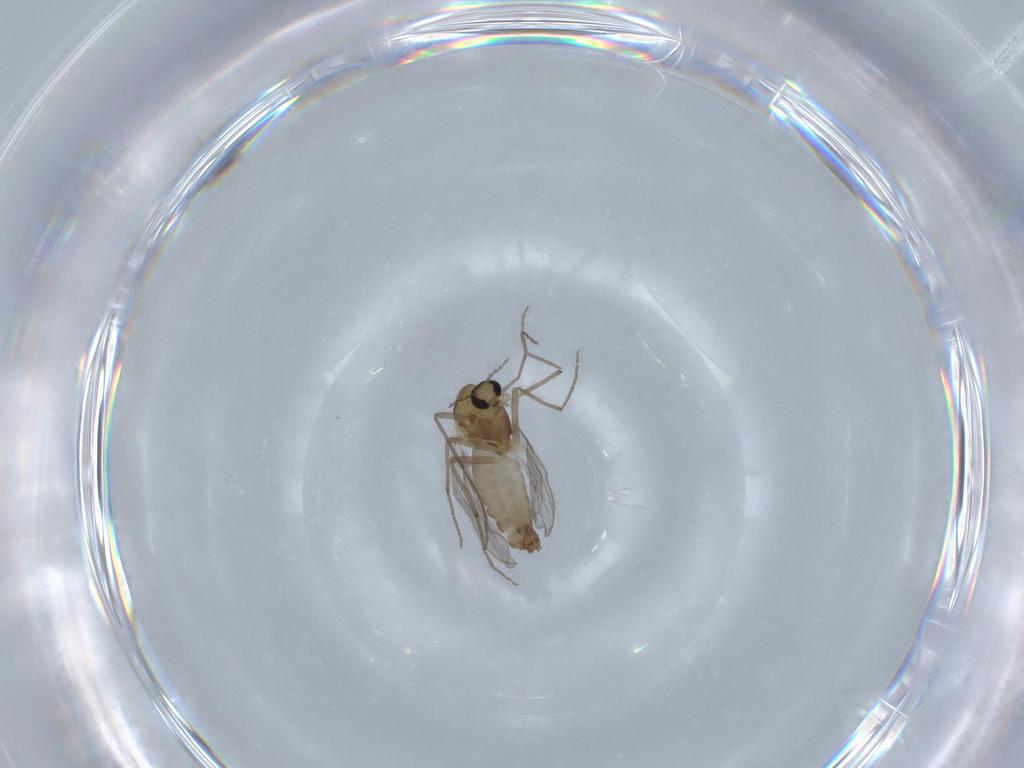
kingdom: Animalia
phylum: Arthropoda
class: Insecta
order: Diptera
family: Chironomidae
